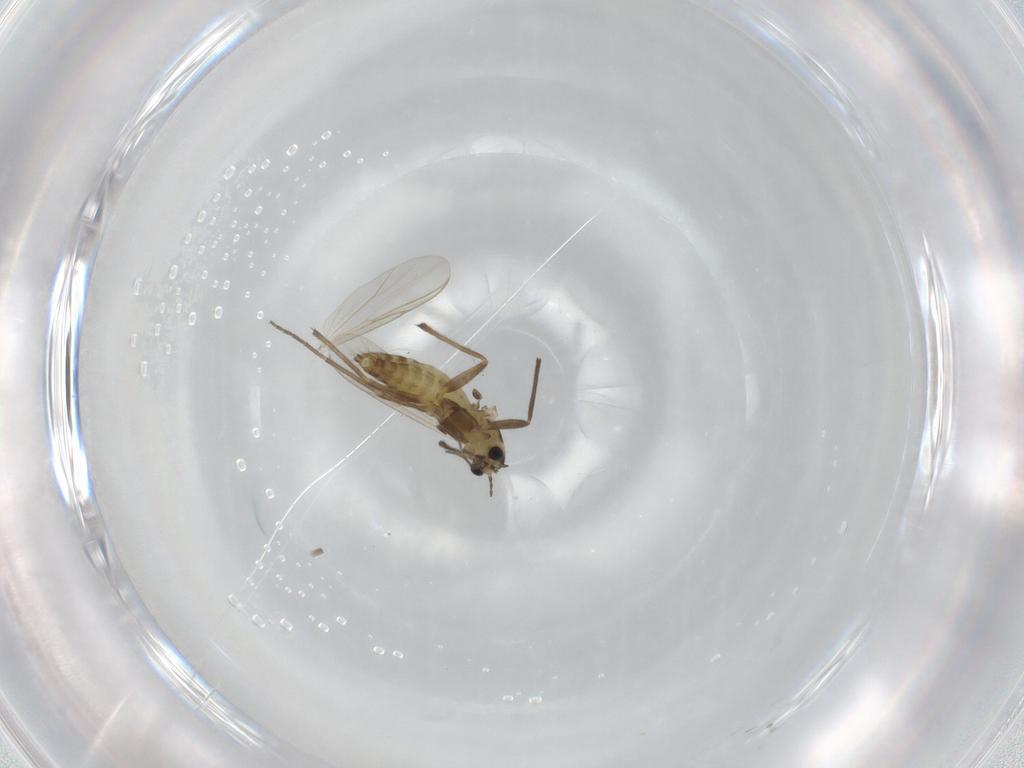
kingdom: Animalia
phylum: Arthropoda
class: Insecta
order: Diptera
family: Chironomidae
